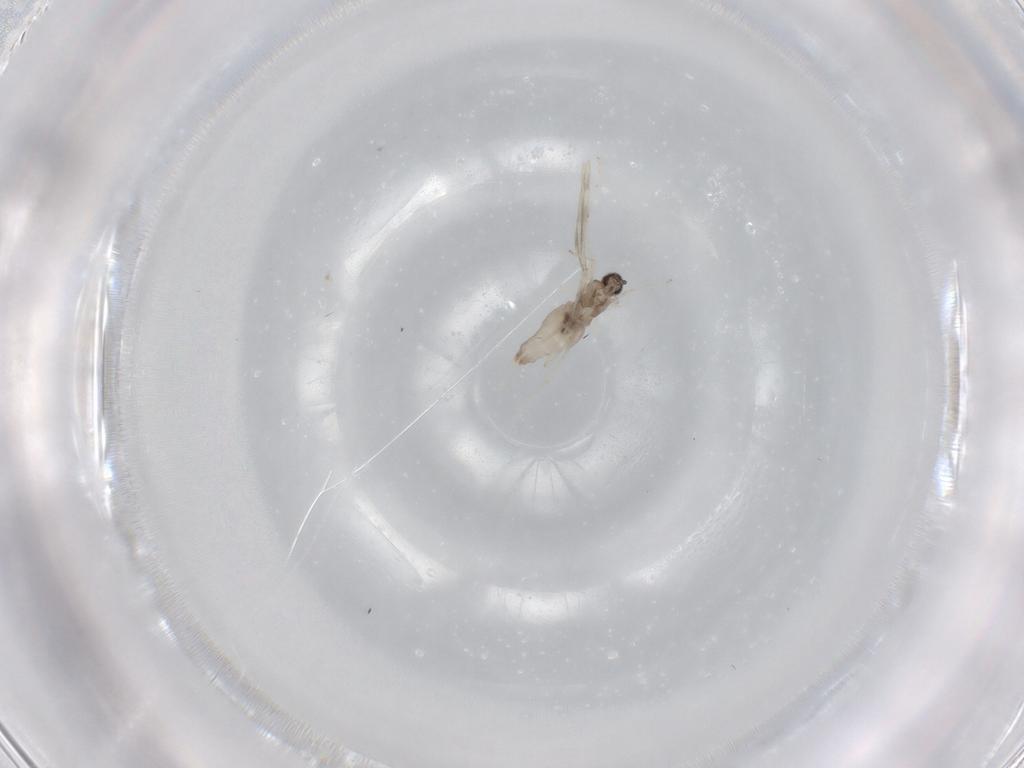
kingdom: Animalia
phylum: Arthropoda
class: Insecta
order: Diptera
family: Cecidomyiidae
